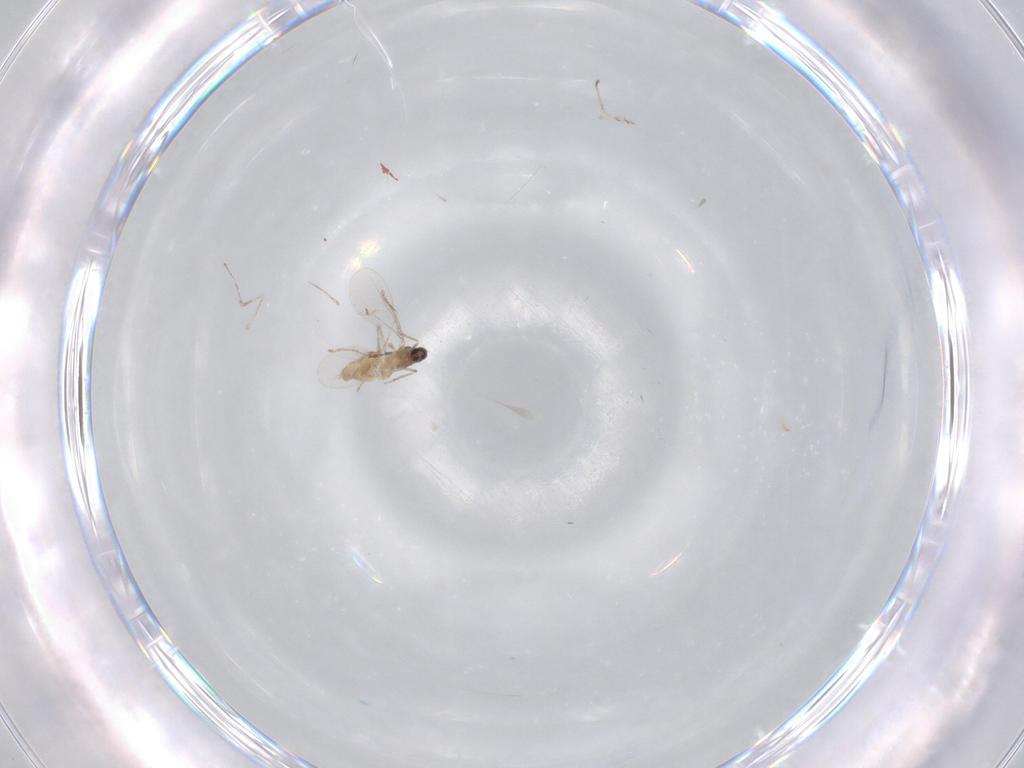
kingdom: Animalia
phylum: Arthropoda
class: Insecta
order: Diptera
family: Cecidomyiidae
